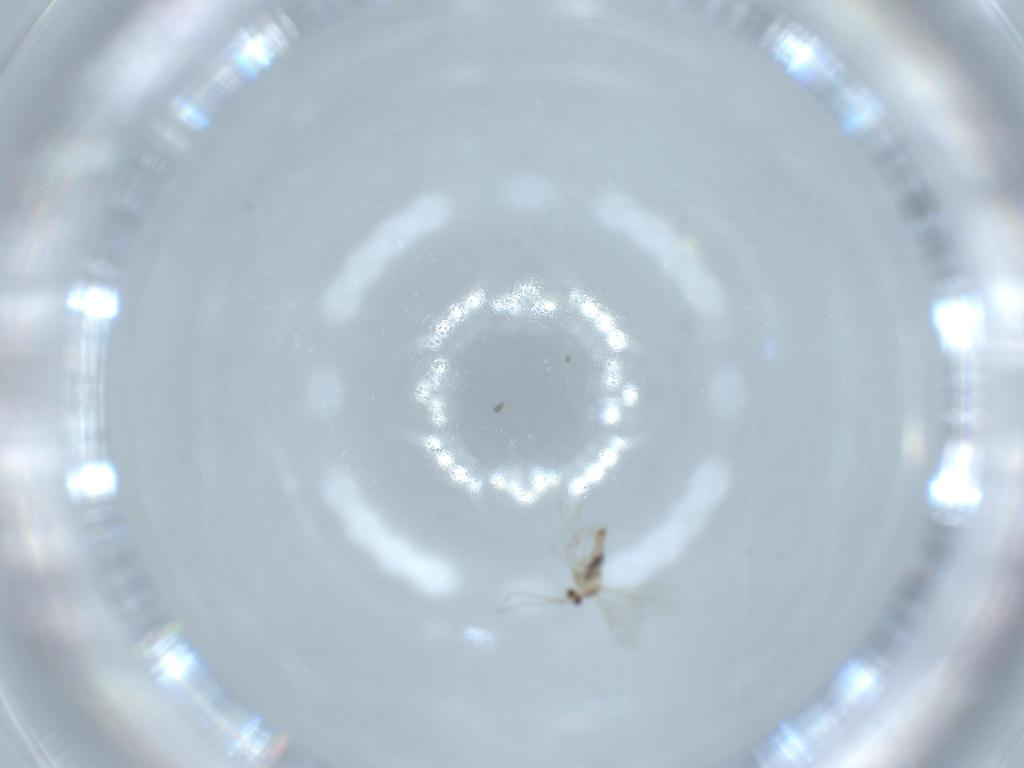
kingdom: Animalia
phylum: Arthropoda
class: Insecta
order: Diptera
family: Cecidomyiidae
